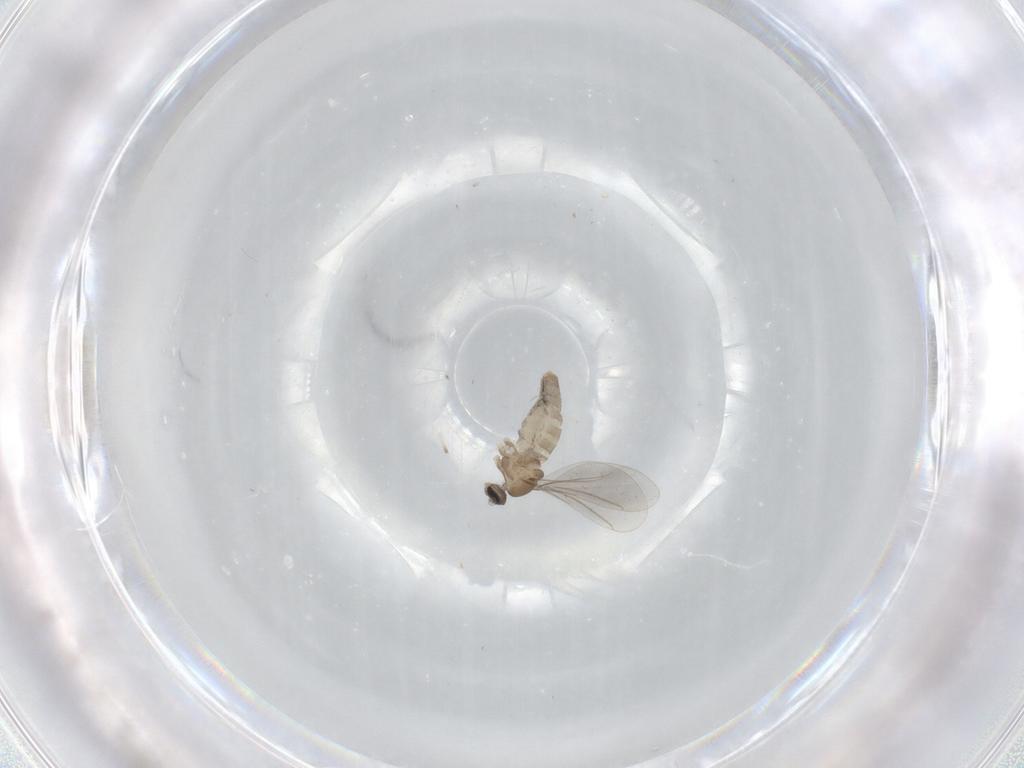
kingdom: Animalia
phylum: Arthropoda
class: Insecta
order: Diptera
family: Cecidomyiidae
